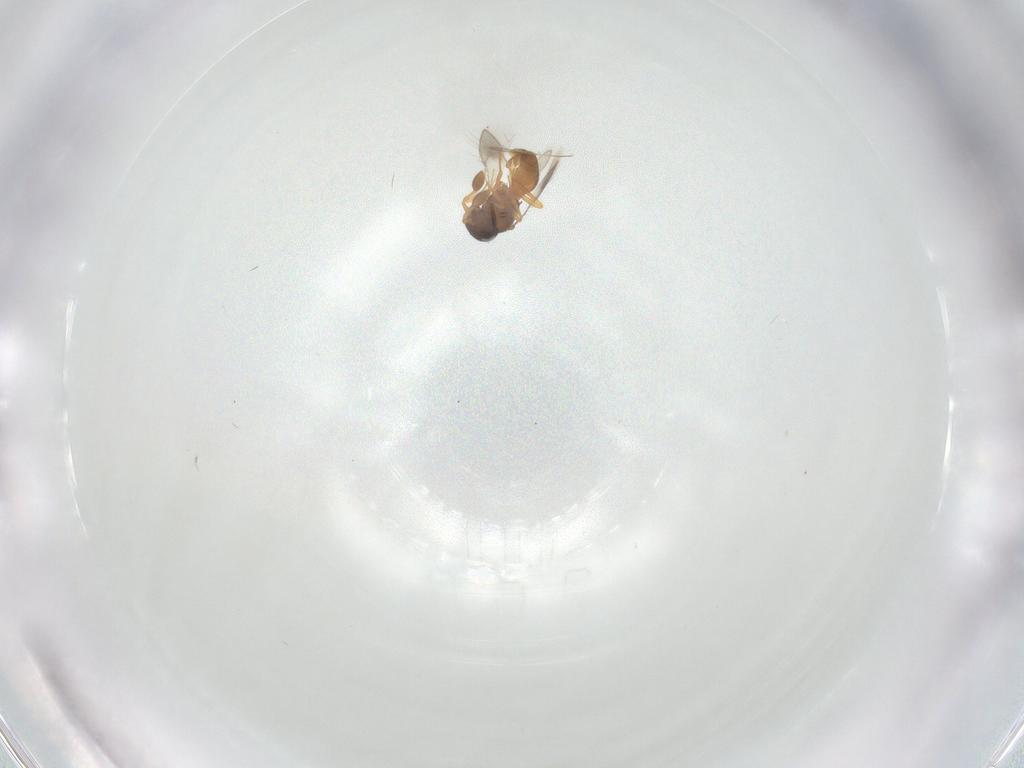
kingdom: Animalia
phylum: Arthropoda
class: Insecta
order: Hymenoptera
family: Scelionidae
